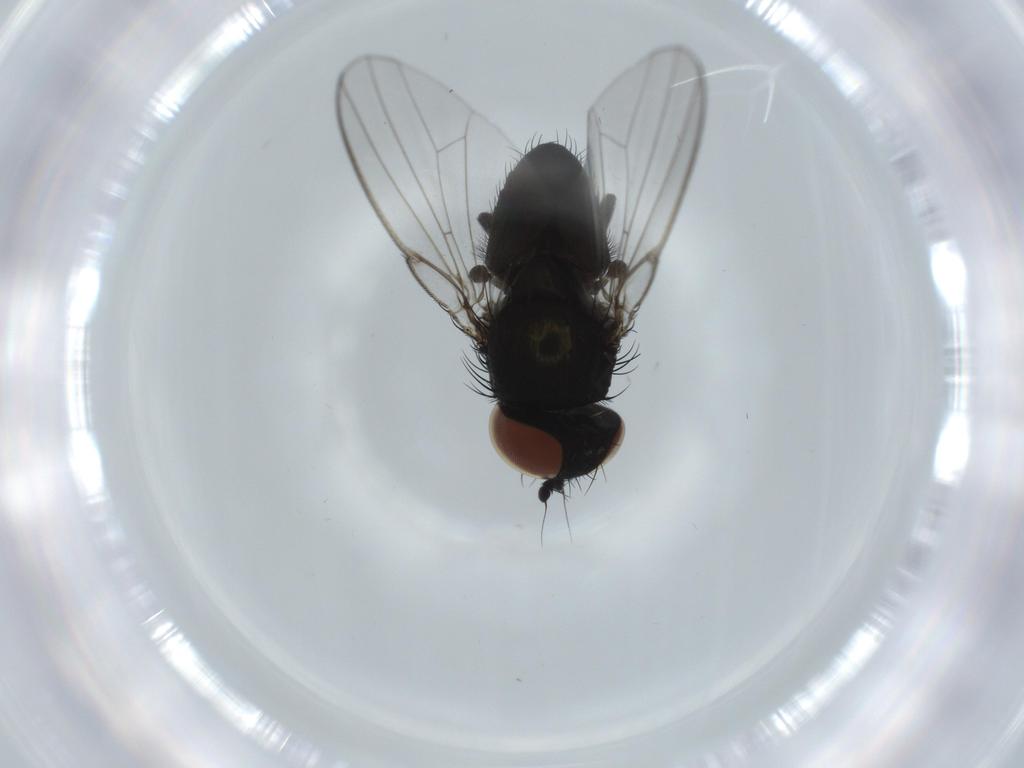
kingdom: Animalia
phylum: Arthropoda
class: Insecta
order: Diptera
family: Milichiidae
